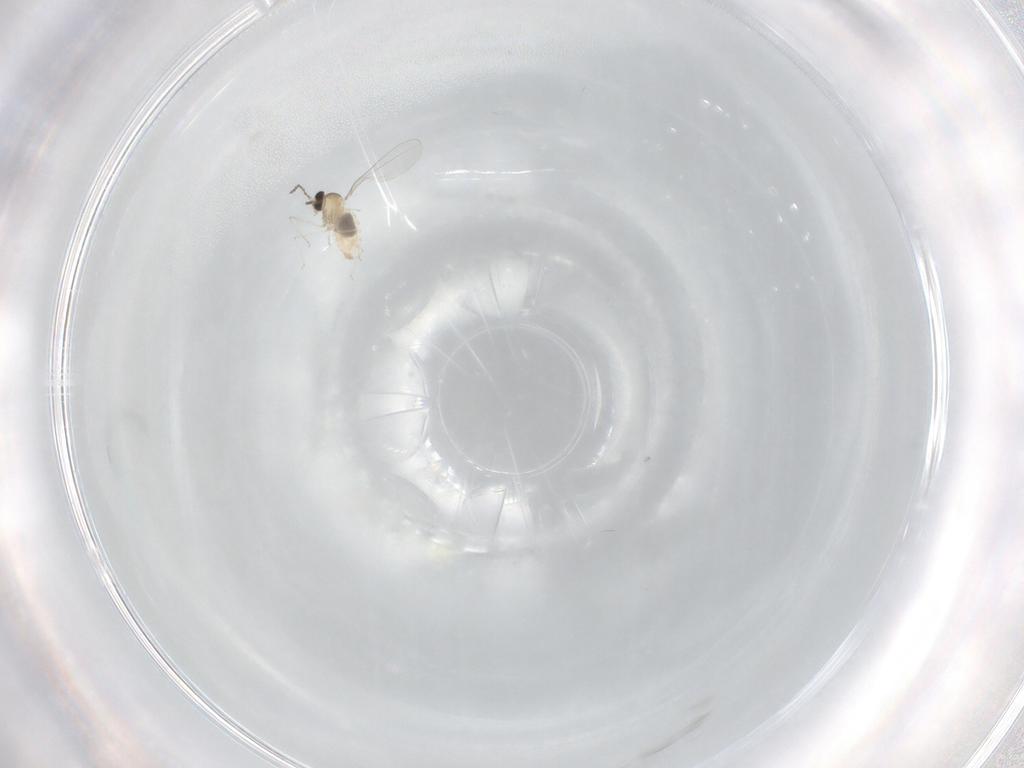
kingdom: Animalia
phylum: Arthropoda
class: Insecta
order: Diptera
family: Cecidomyiidae
